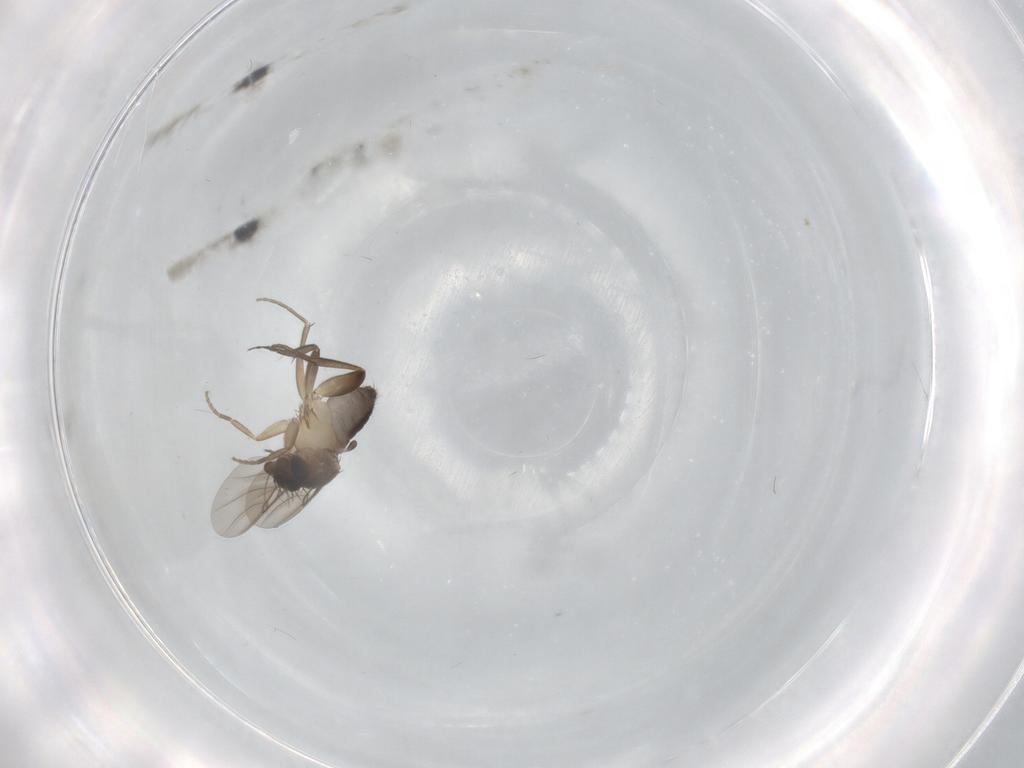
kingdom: Animalia
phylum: Arthropoda
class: Insecta
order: Diptera
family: Phoridae
